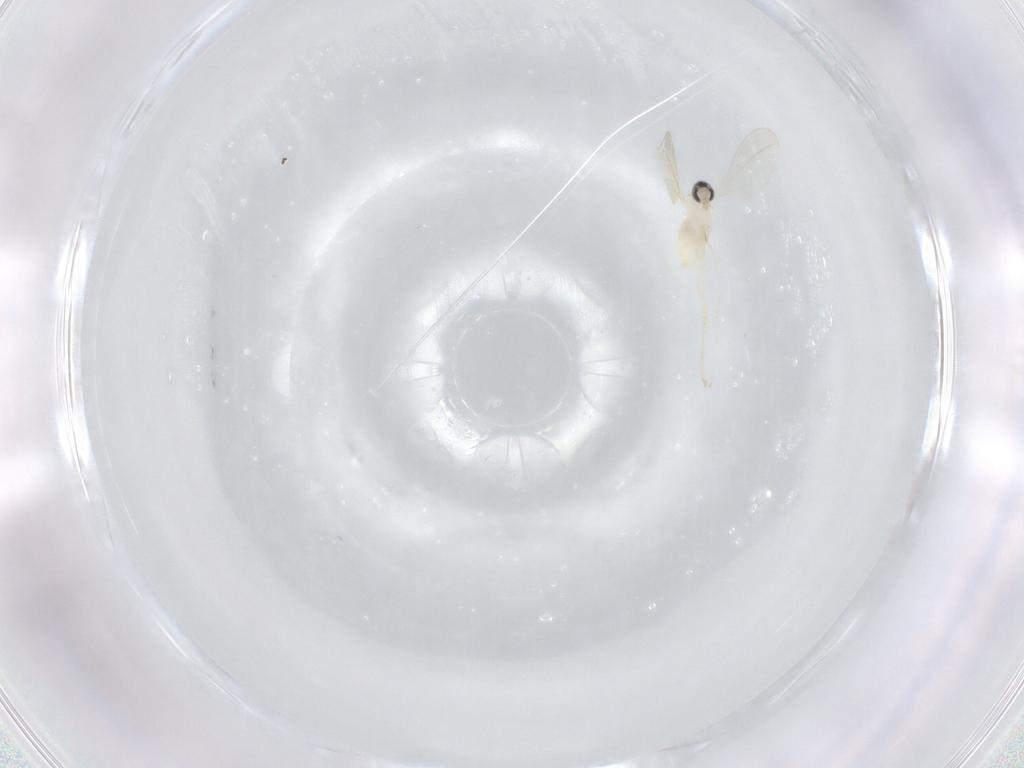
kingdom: Animalia
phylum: Arthropoda
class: Insecta
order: Diptera
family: Cecidomyiidae
